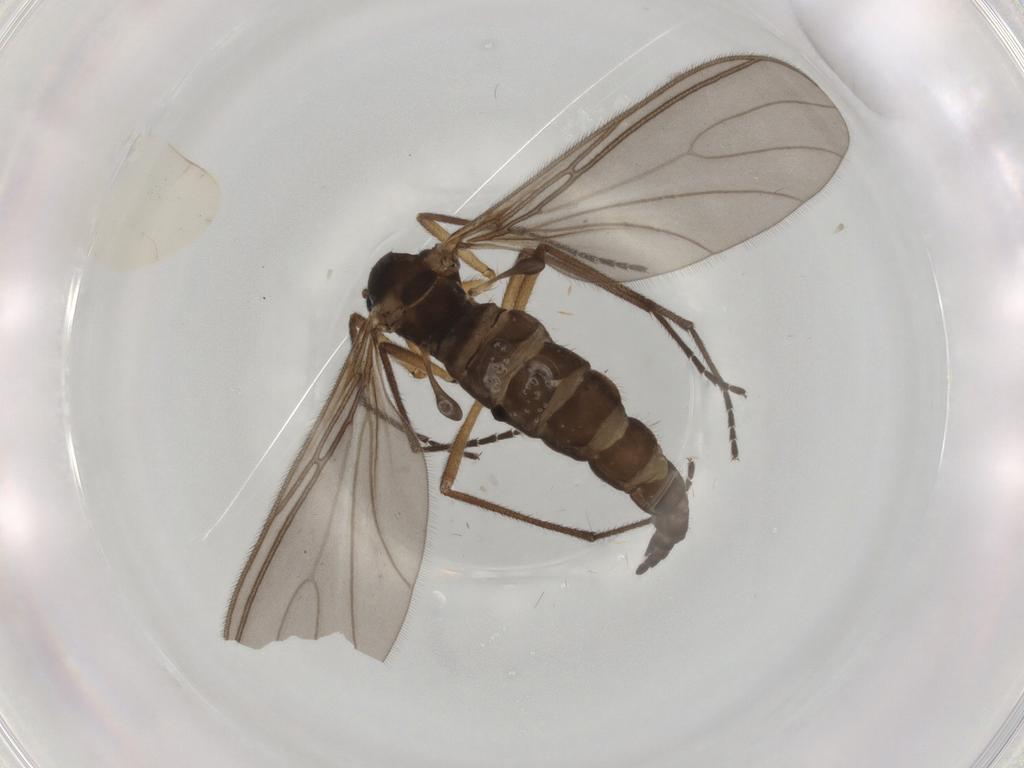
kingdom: Animalia
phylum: Arthropoda
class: Insecta
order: Diptera
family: Sciaridae
